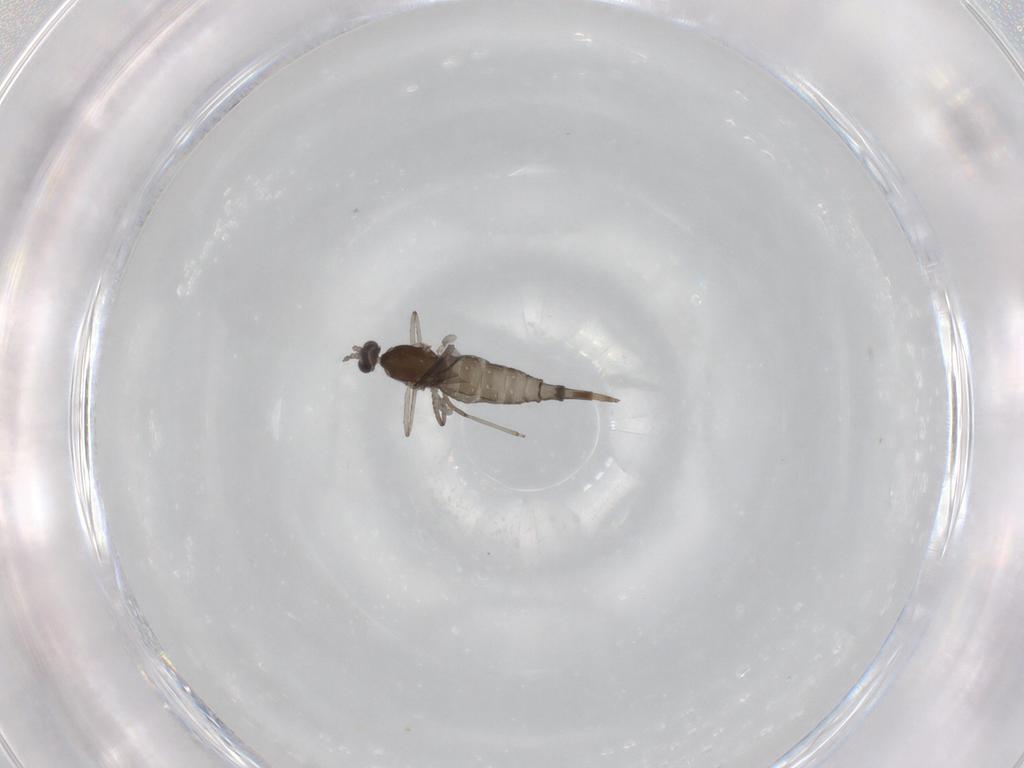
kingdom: Animalia
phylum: Arthropoda
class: Insecta
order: Diptera
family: Cecidomyiidae
